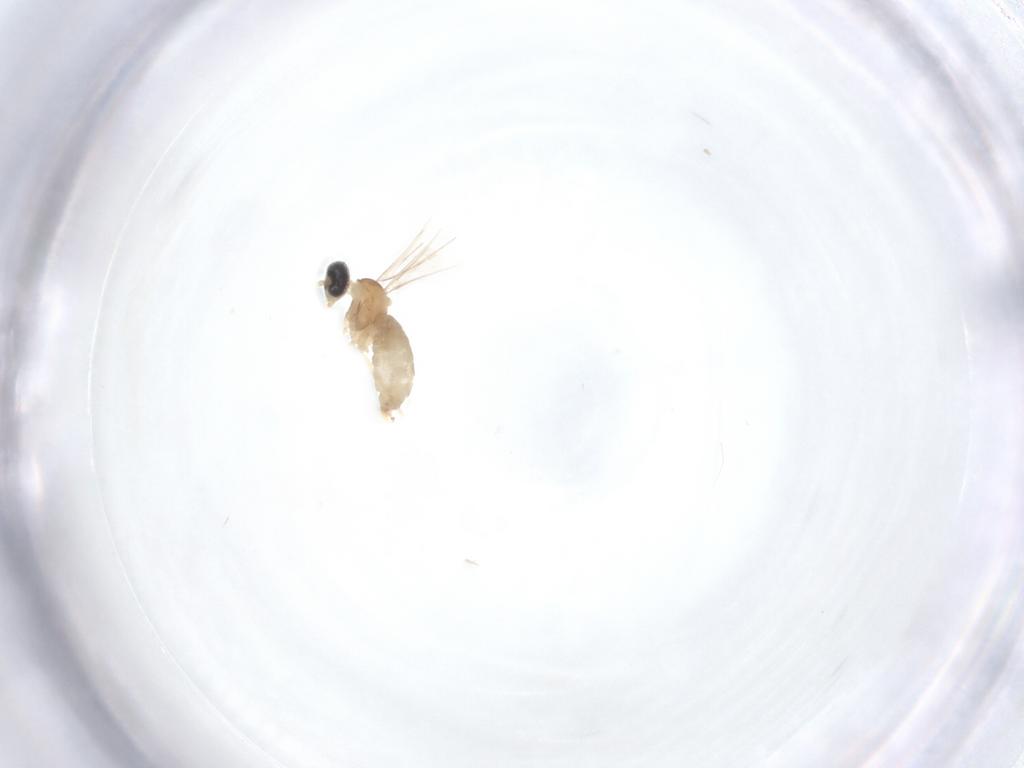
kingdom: Animalia
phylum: Arthropoda
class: Insecta
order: Diptera
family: Cecidomyiidae
